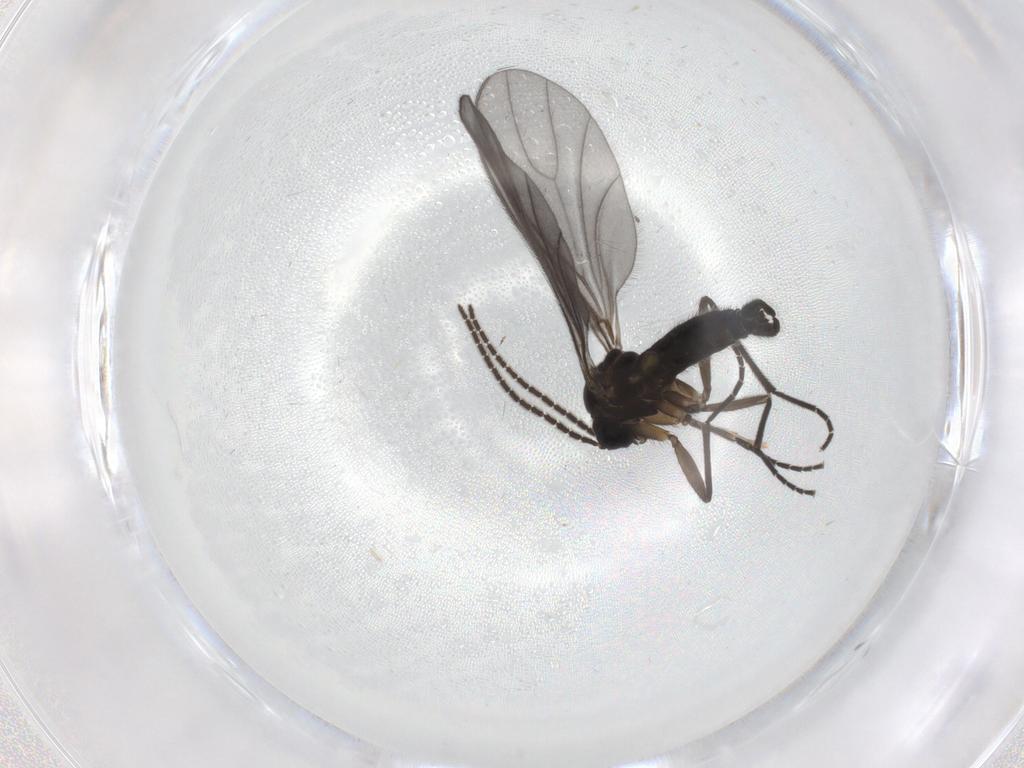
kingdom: Animalia
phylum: Arthropoda
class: Insecta
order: Diptera
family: Sciaridae
